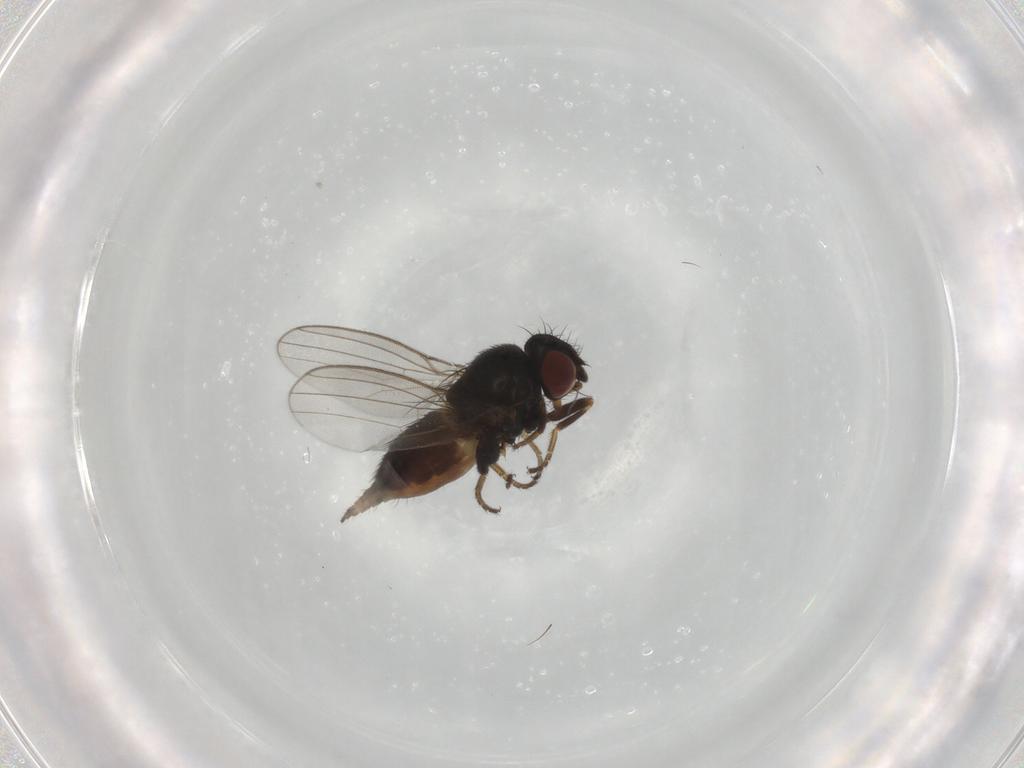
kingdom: Animalia
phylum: Arthropoda
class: Insecta
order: Diptera
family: Milichiidae
